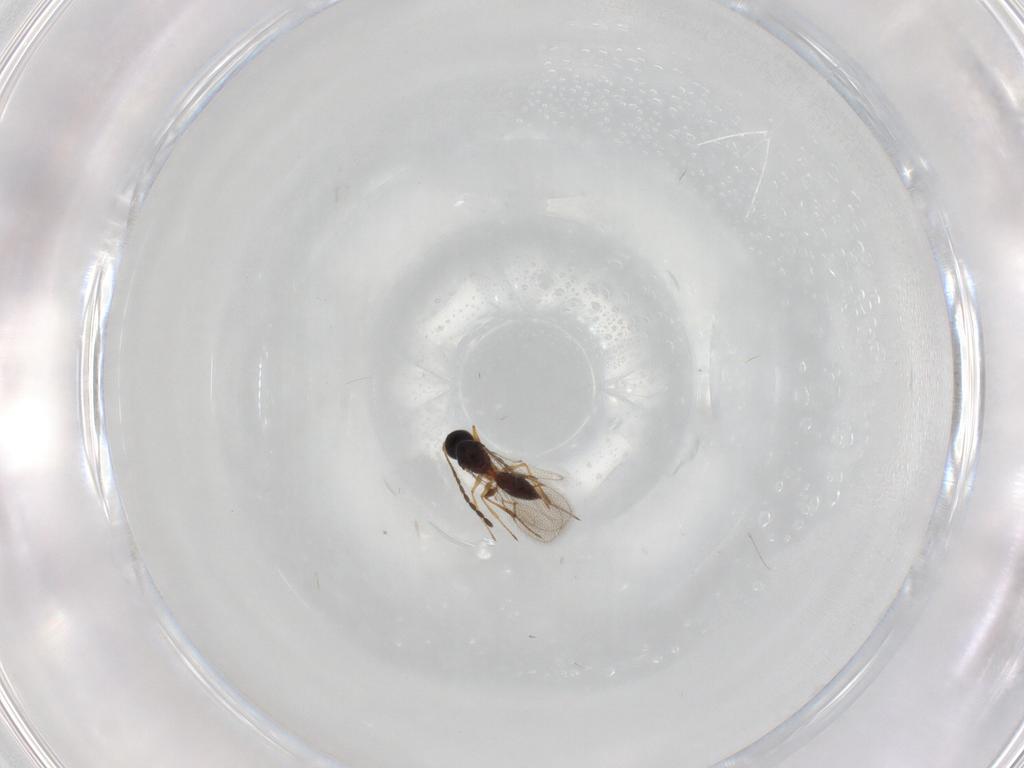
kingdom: Animalia
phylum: Arthropoda
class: Insecta
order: Hymenoptera
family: Figitidae
